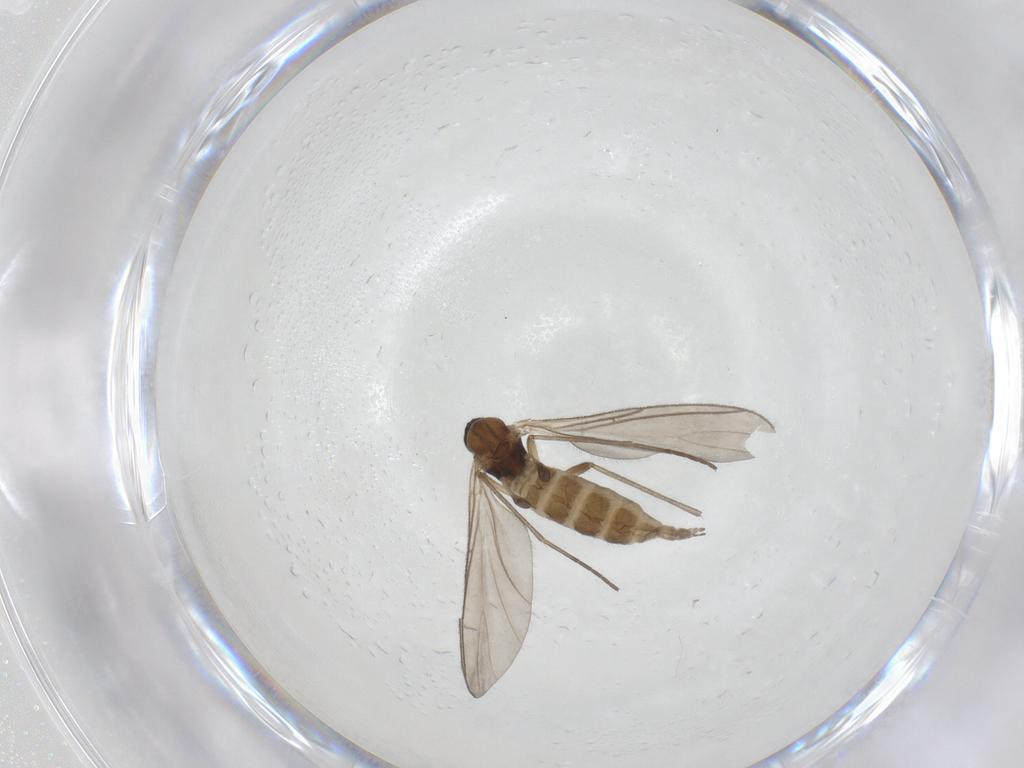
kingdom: Animalia
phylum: Arthropoda
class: Insecta
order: Diptera
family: Sciaridae
